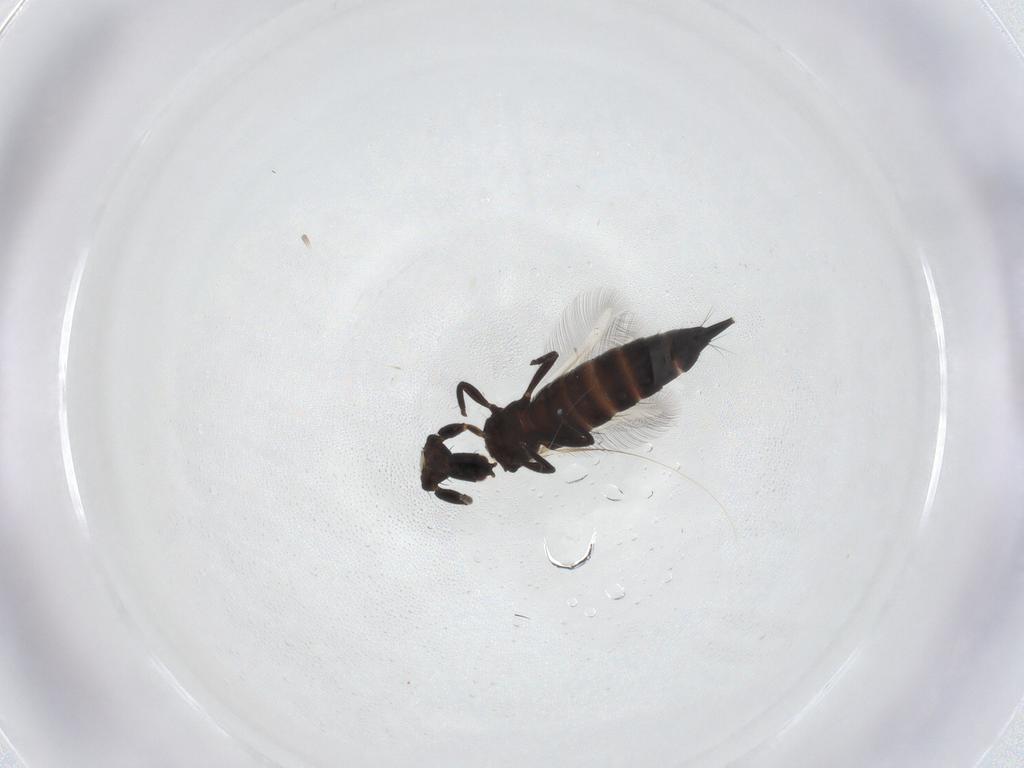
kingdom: Animalia
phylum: Arthropoda
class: Insecta
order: Thysanoptera
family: Phlaeothripidae
